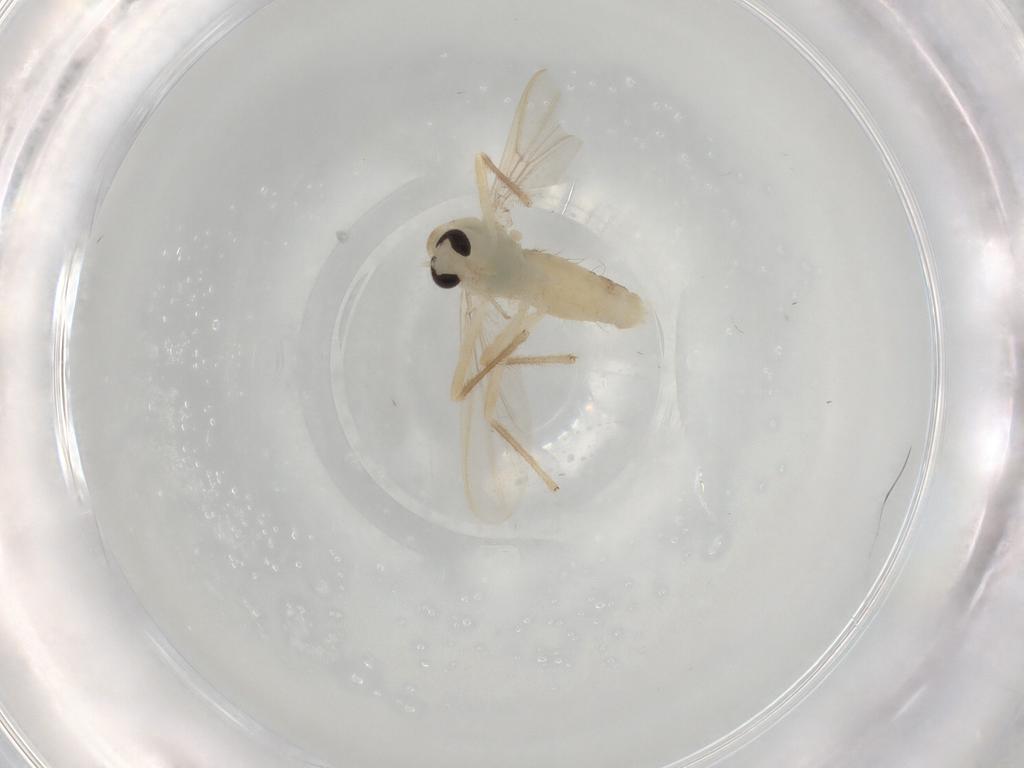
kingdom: Animalia
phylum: Arthropoda
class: Insecta
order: Diptera
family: Chironomidae
